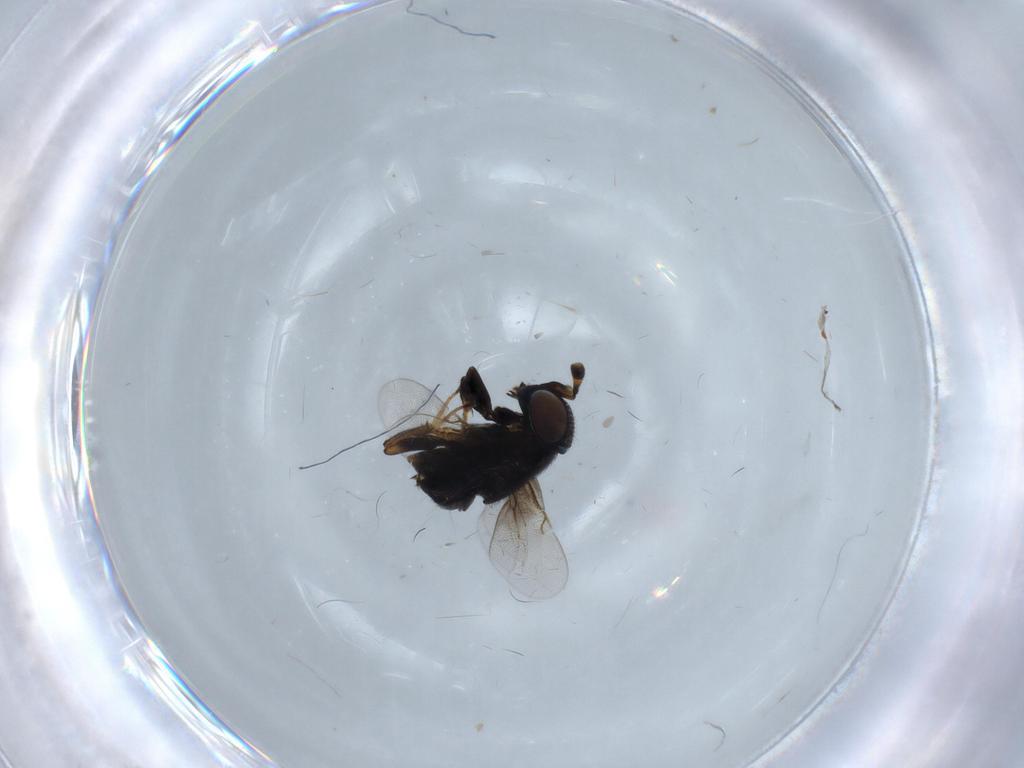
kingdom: Animalia
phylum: Arthropoda
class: Insecta
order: Hymenoptera
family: Encyrtidae
